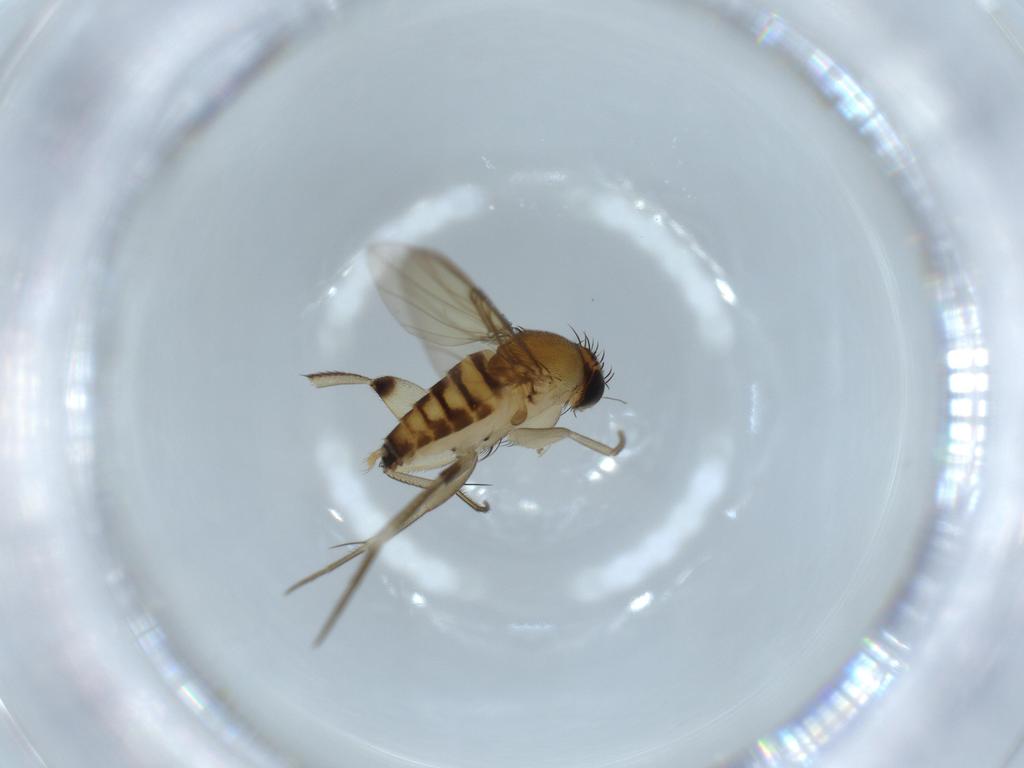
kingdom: Animalia
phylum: Arthropoda
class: Insecta
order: Diptera
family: Phoridae
